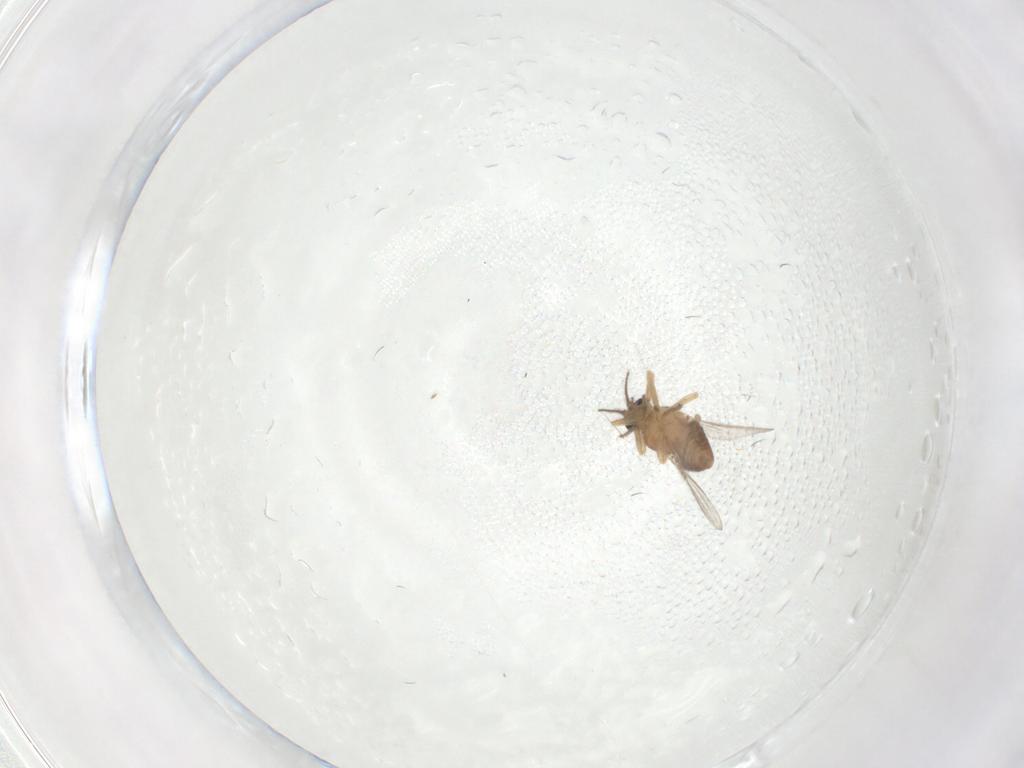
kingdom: Animalia
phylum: Arthropoda
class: Insecta
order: Diptera
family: Ceratopogonidae
